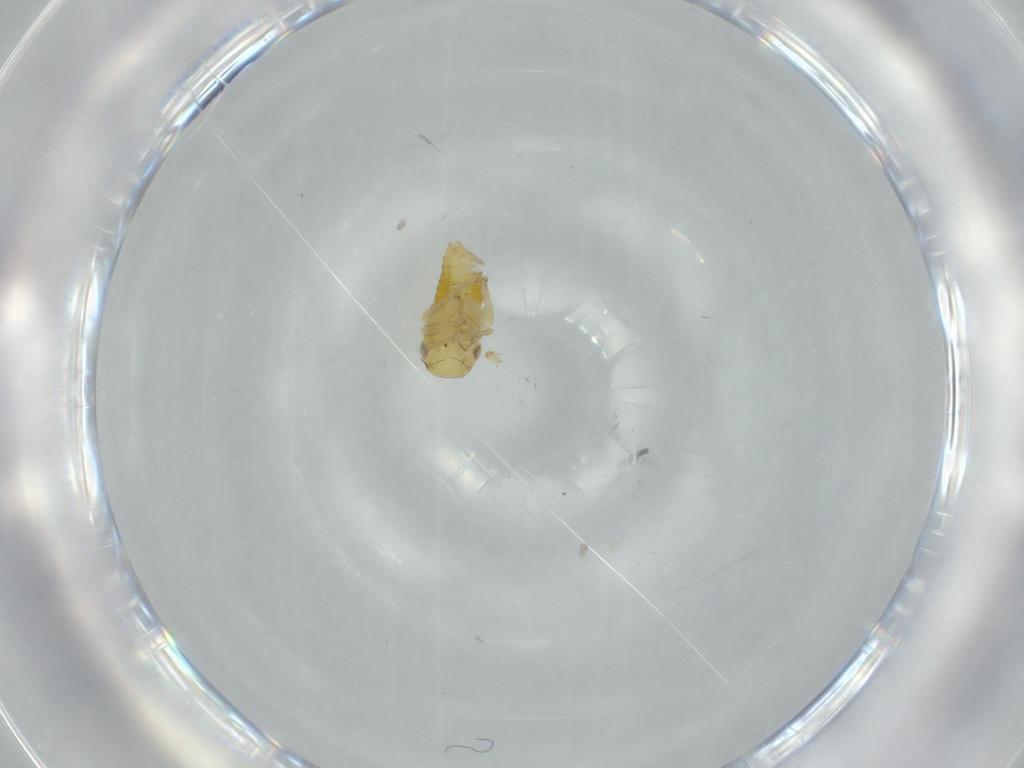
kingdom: Animalia
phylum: Arthropoda
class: Insecta
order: Hemiptera
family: Cicadellidae
